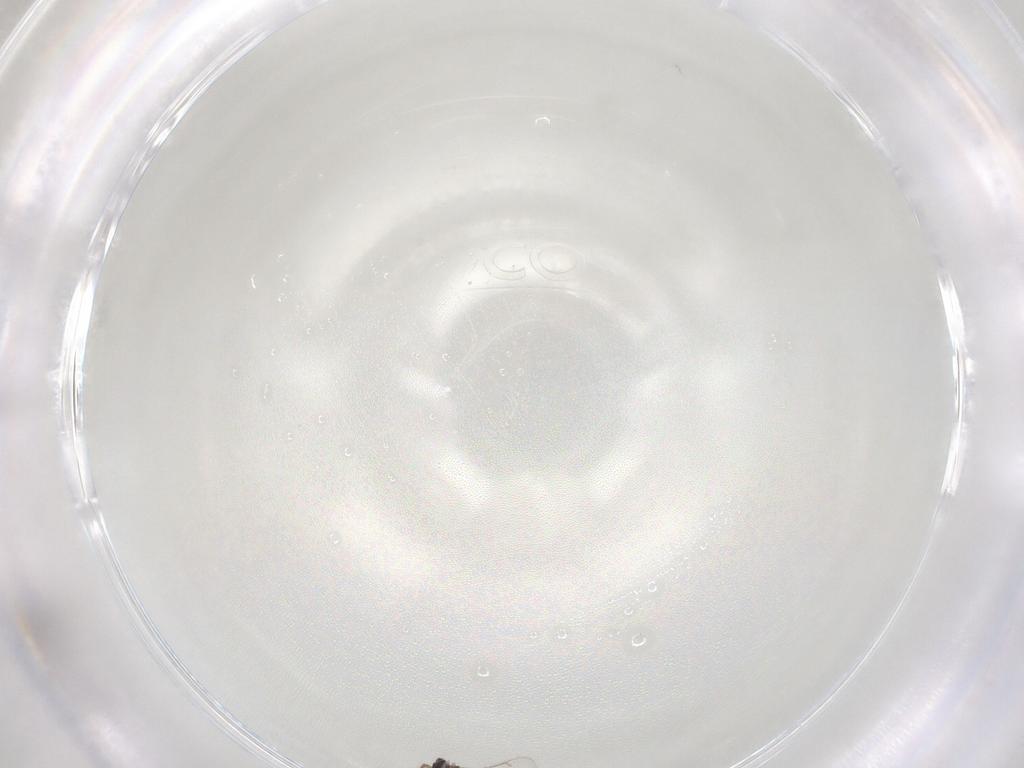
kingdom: Animalia
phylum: Arthropoda
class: Insecta
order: Hymenoptera
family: Eulophidae
